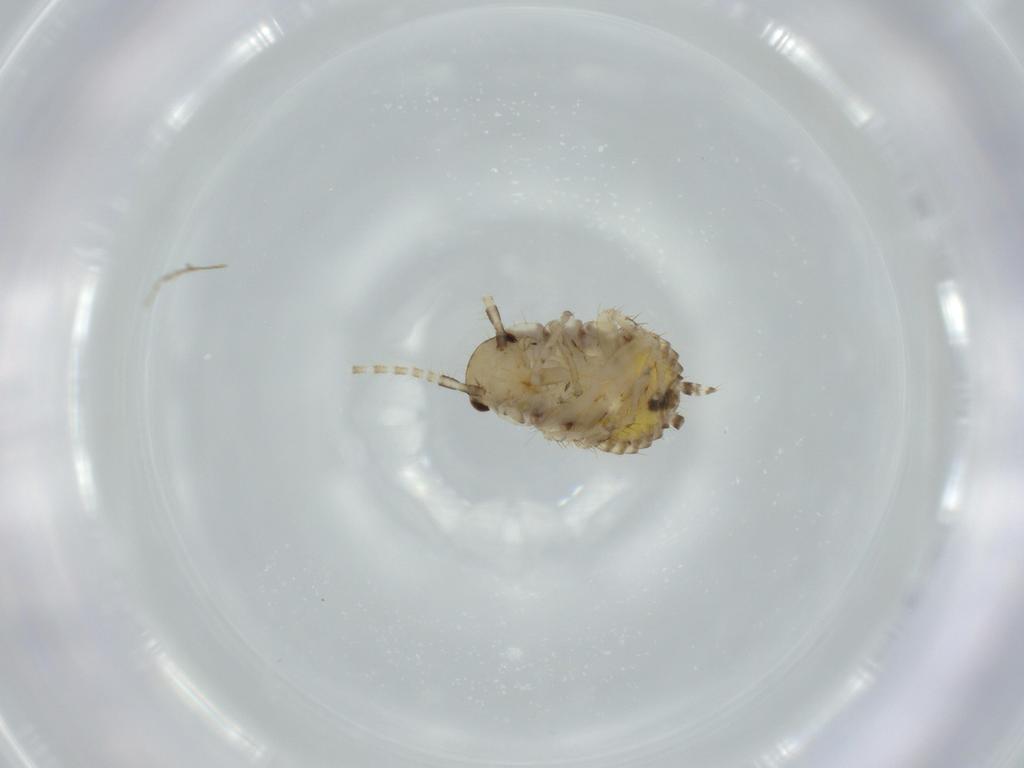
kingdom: Animalia
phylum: Arthropoda
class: Insecta
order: Blattodea
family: Ectobiidae
